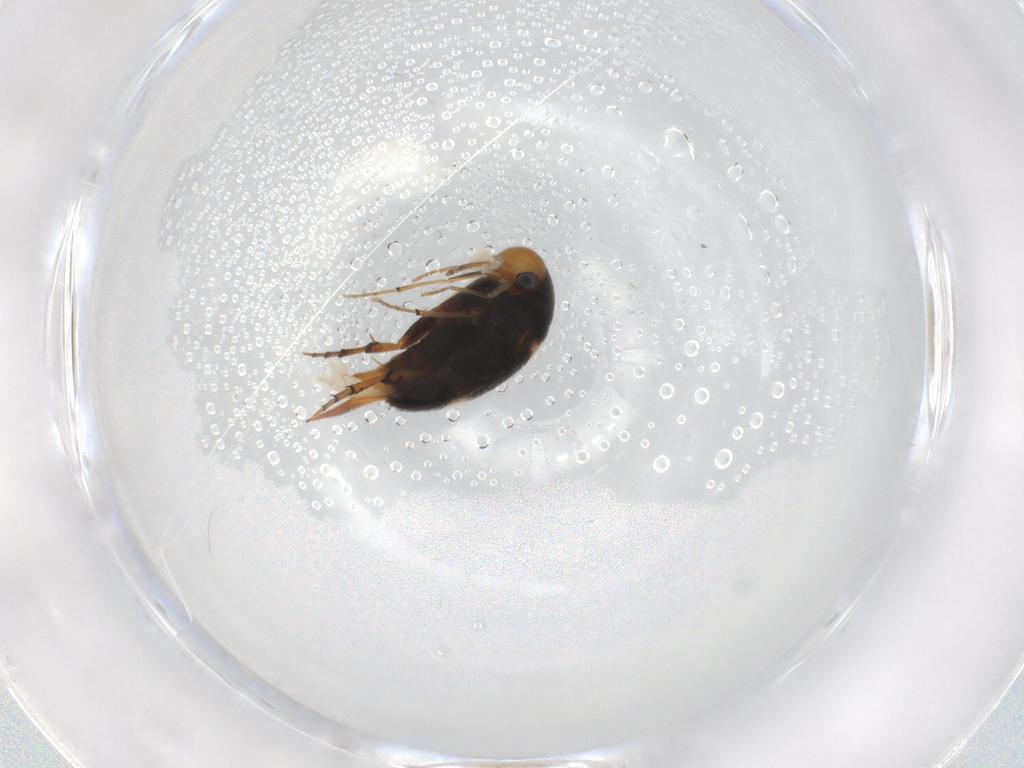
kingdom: Animalia
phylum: Arthropoda
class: Insecta
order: Coleoptera
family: Mordellidae
